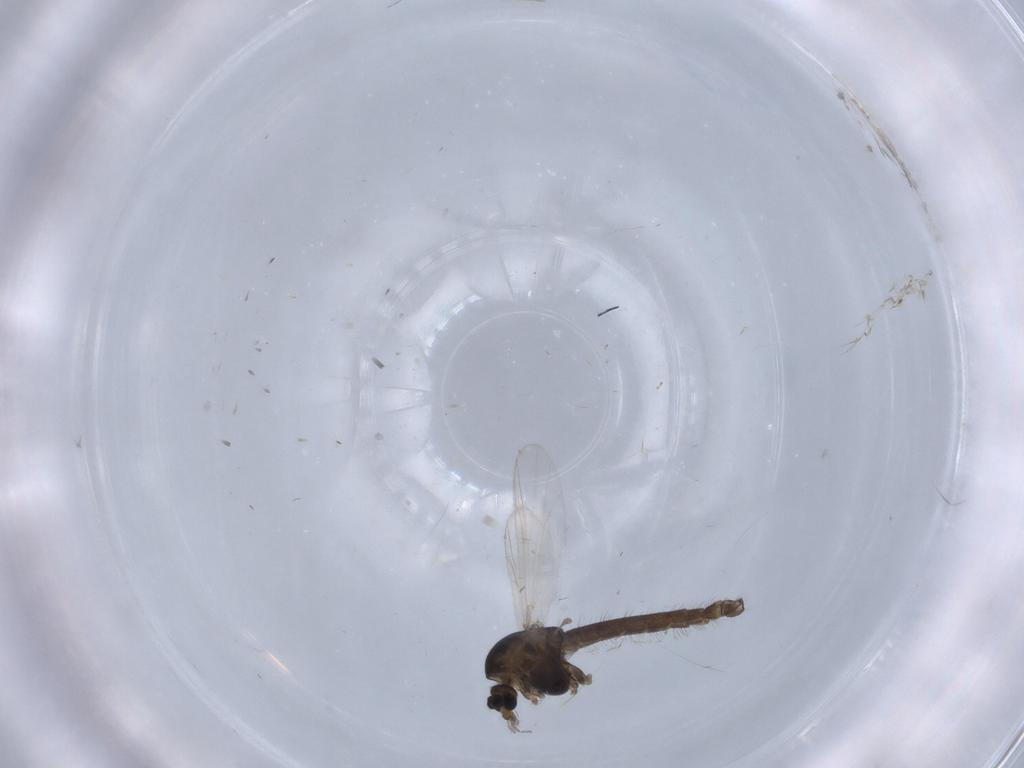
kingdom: Animalia
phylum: Arthropoda
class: Insecta
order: Diptera
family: Chironomidae
